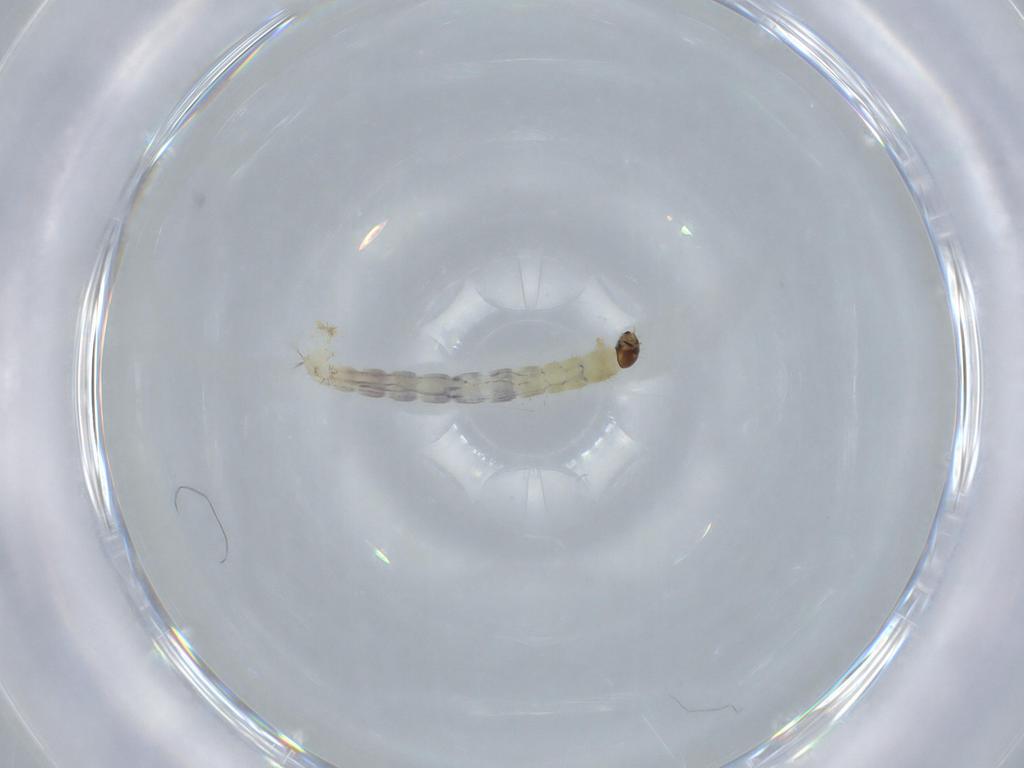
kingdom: Animalia
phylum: Arthropoda
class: Insecta
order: Diptera
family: Chironomidae
